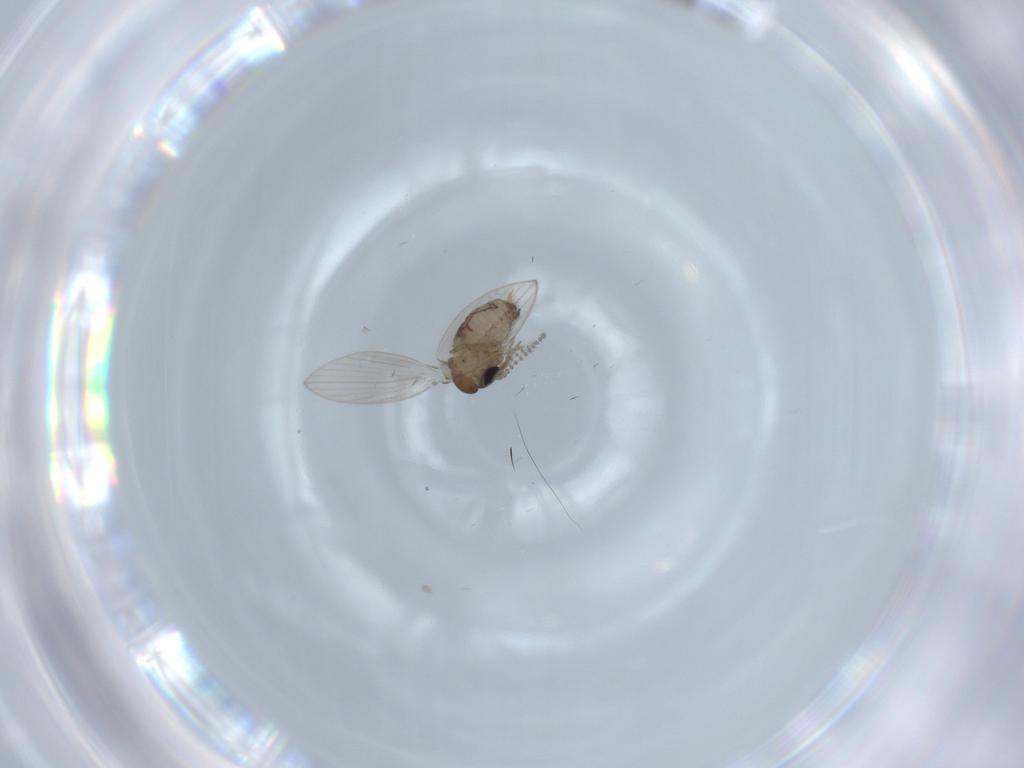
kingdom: Animalia
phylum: Arthropoda
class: Insecta
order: Diptera
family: Psychodidae
